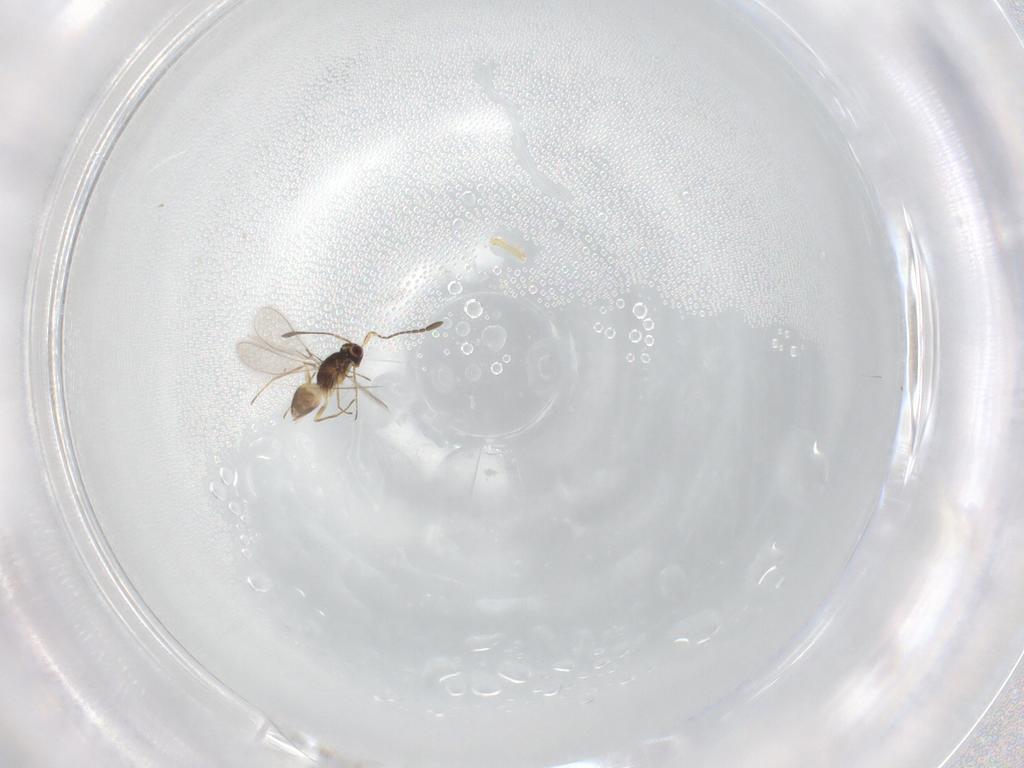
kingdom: Animalia
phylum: Arthropoda
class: Insecta
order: Hymenoptera
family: Mymaridae
